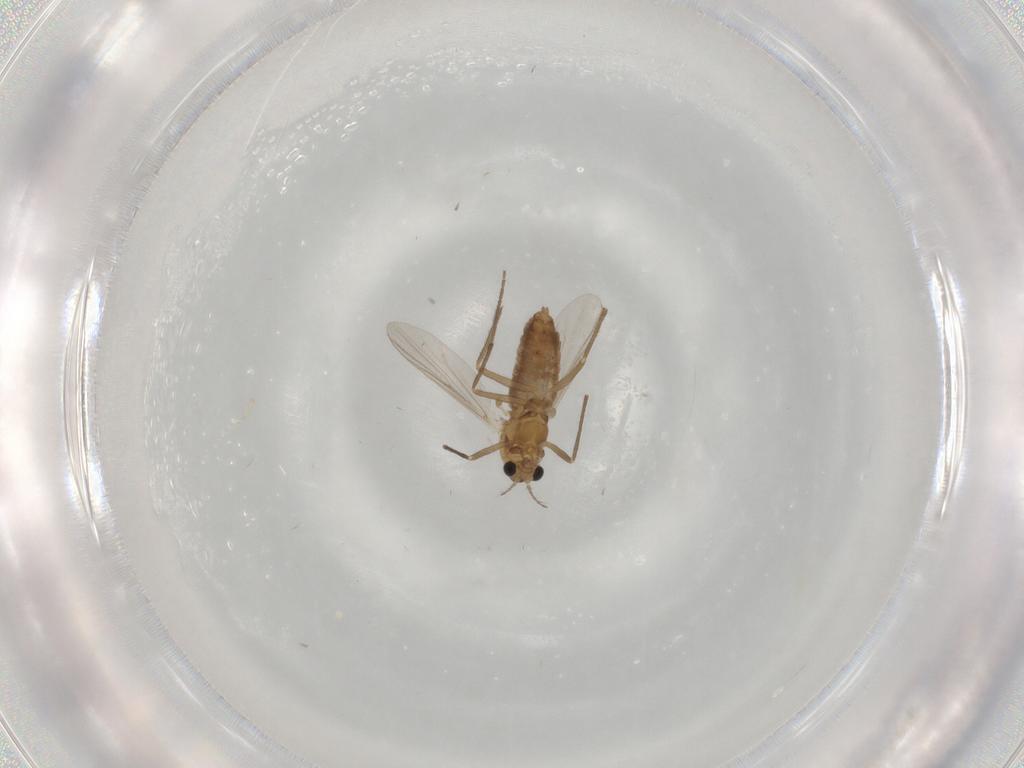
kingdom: Animalia
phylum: Arthropoda
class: Insecta
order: Diptera
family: Chironomidae
